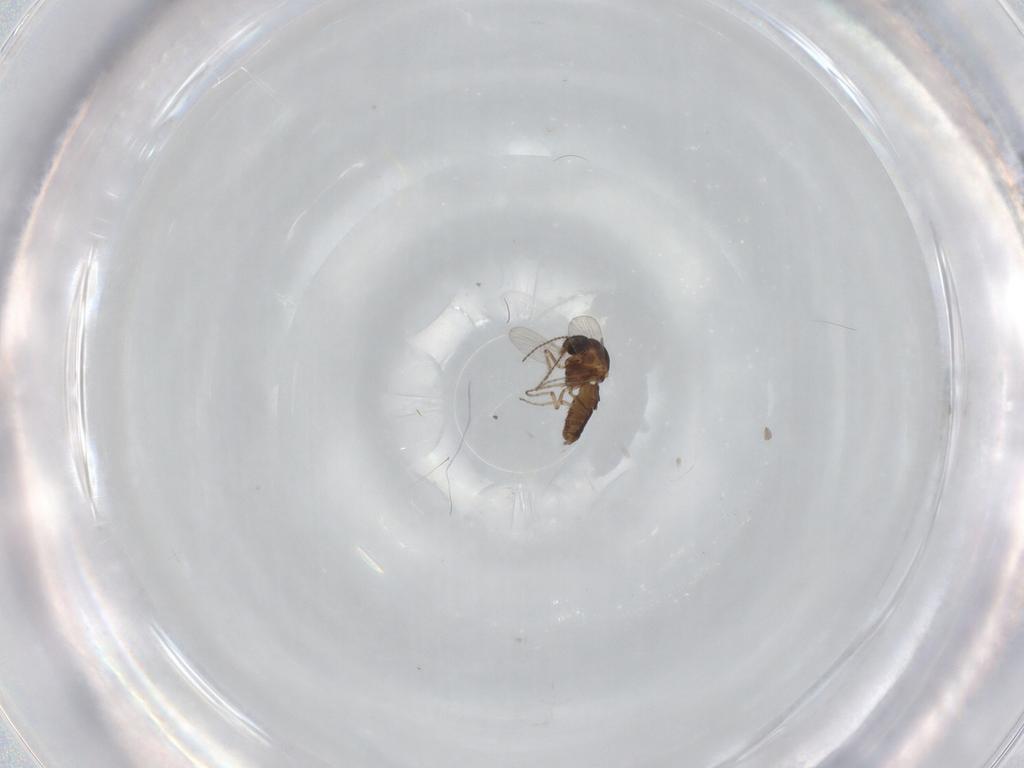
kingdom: Animalia
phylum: Arthropoda
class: Insecta
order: Diptera
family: Ceratopogonidae
